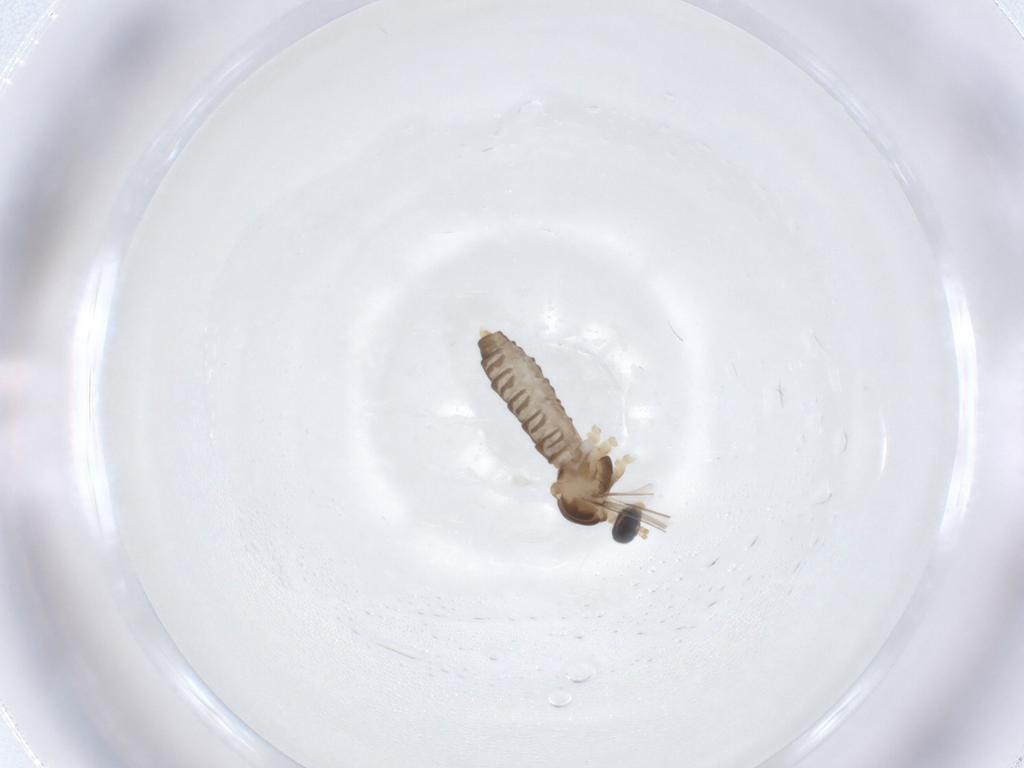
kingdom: Animalia
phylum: Arthropoda
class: Insecta
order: Diptera
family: Cecidomyiidae
